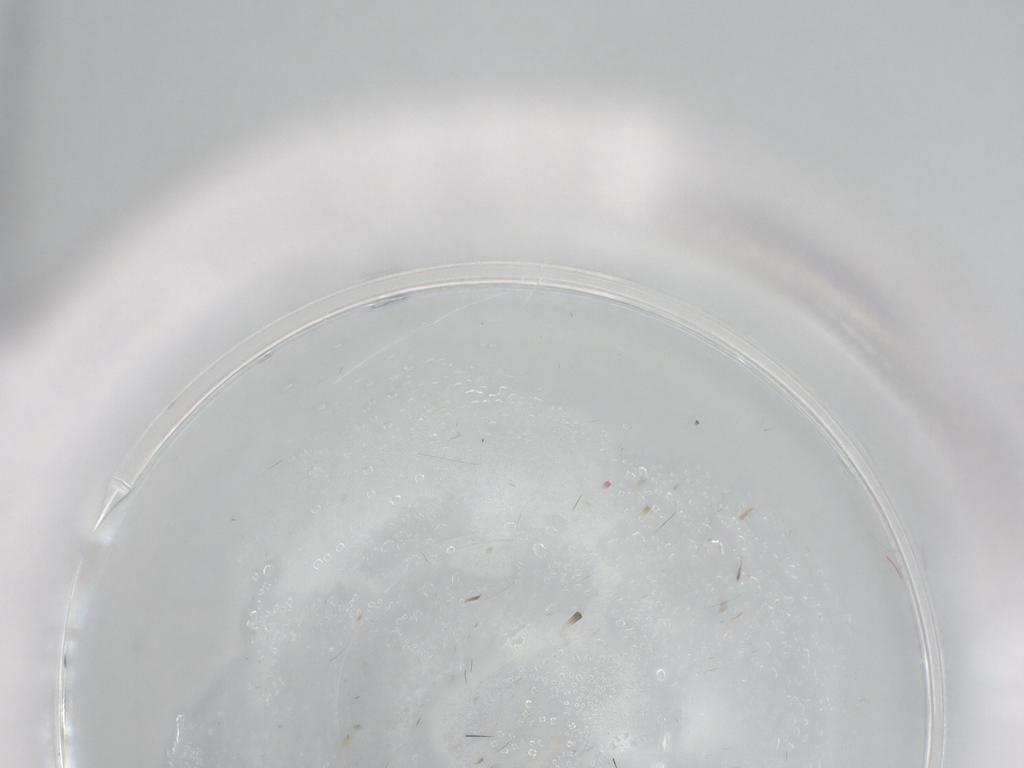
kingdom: Animalia
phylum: Arthropoda
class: Insecta
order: Diptera
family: Phoridae
